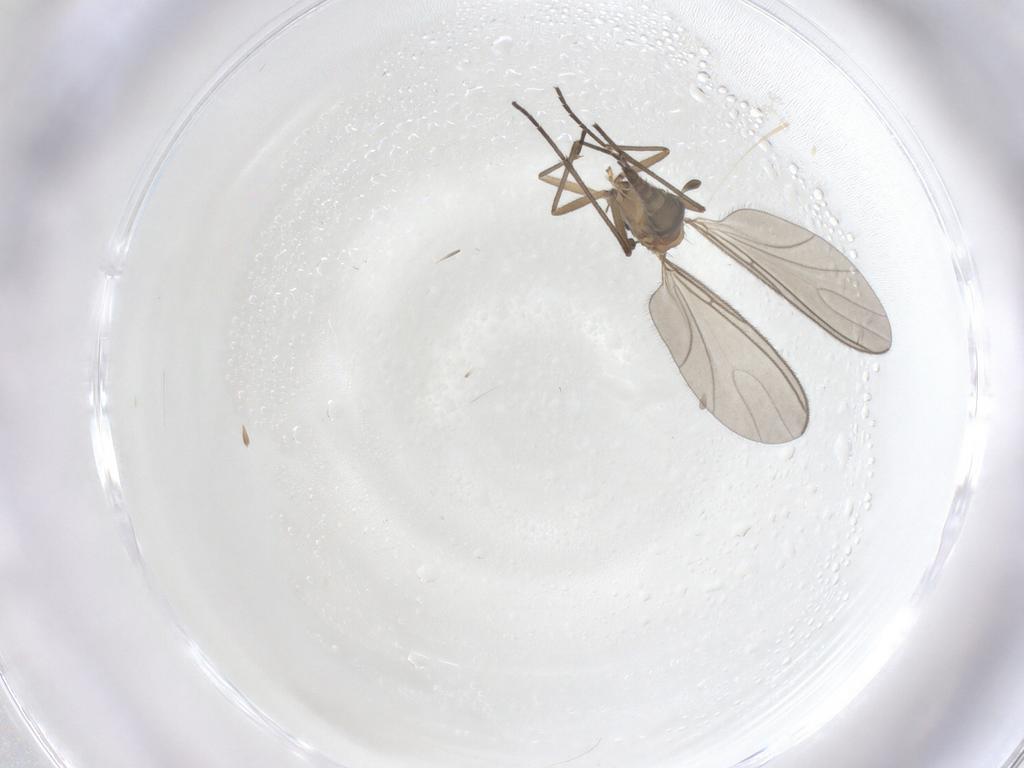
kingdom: Animalia
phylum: Arthropoda
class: Insecta
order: Diptera
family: Sciaridae
